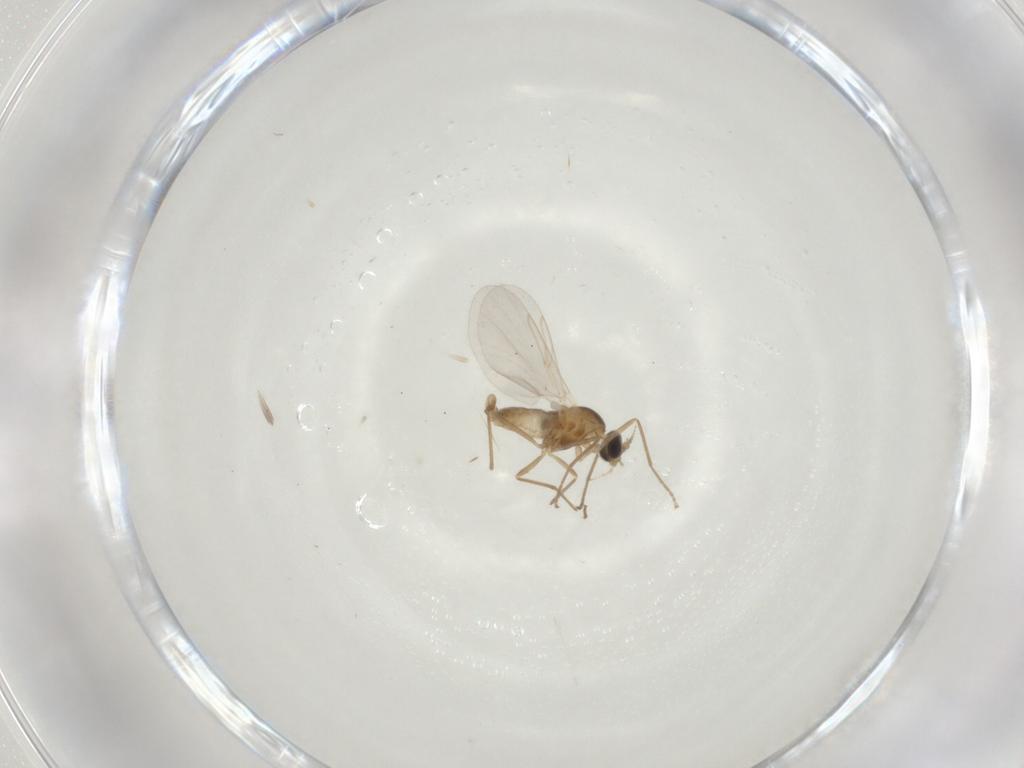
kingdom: Animalia
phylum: Arthropoda
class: Insecta
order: Diptera
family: Cecidomyiidae
